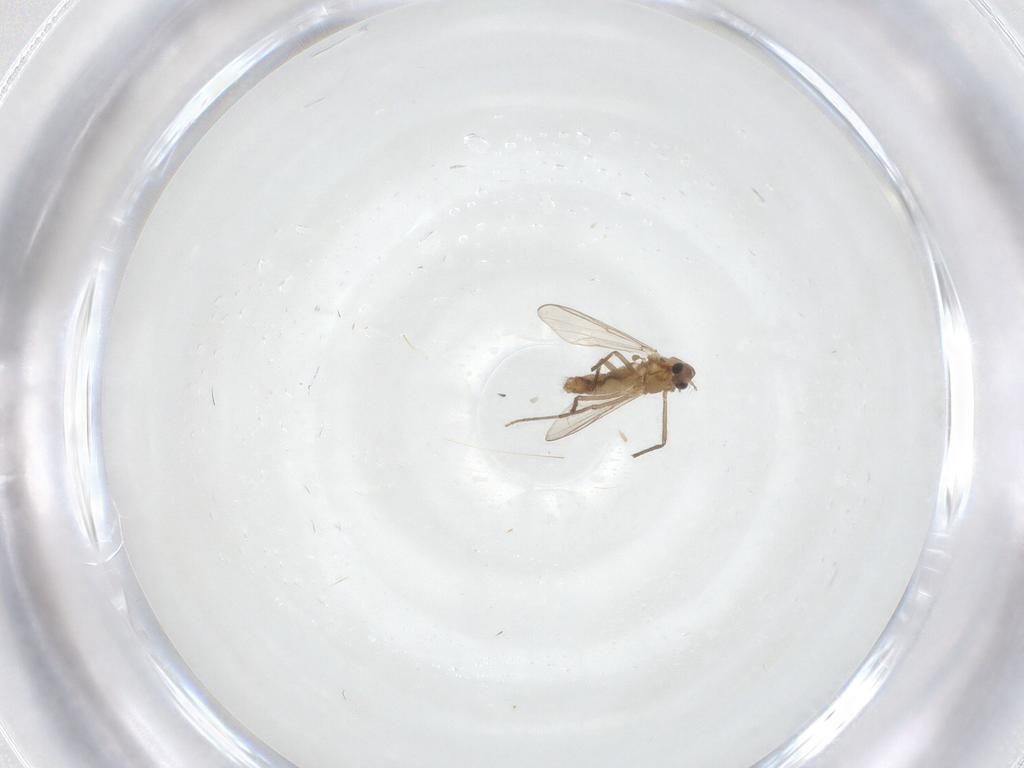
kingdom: Animalia
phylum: Arthropoda
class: Insecta
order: Diptera
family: Chironomidae
